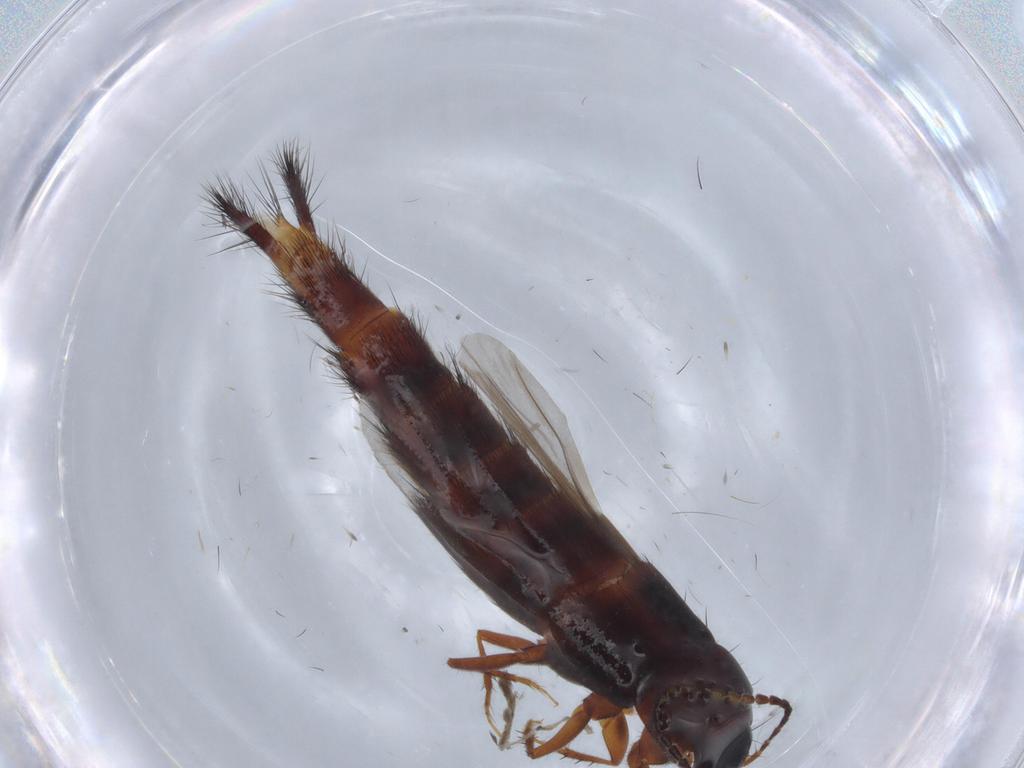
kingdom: Animalia
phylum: Arthropoda
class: Insecta
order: Coleoptera
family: Staphylinidae
